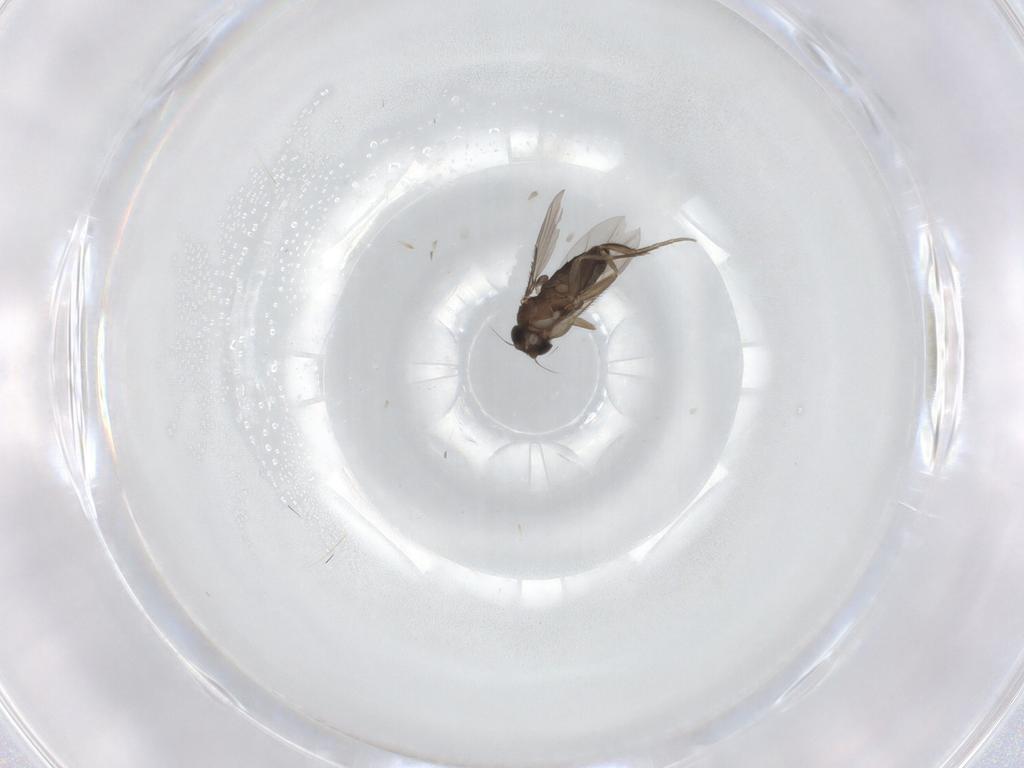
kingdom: Animalia
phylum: Arthropoda
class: Insecta
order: Diptera
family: Phoridae
